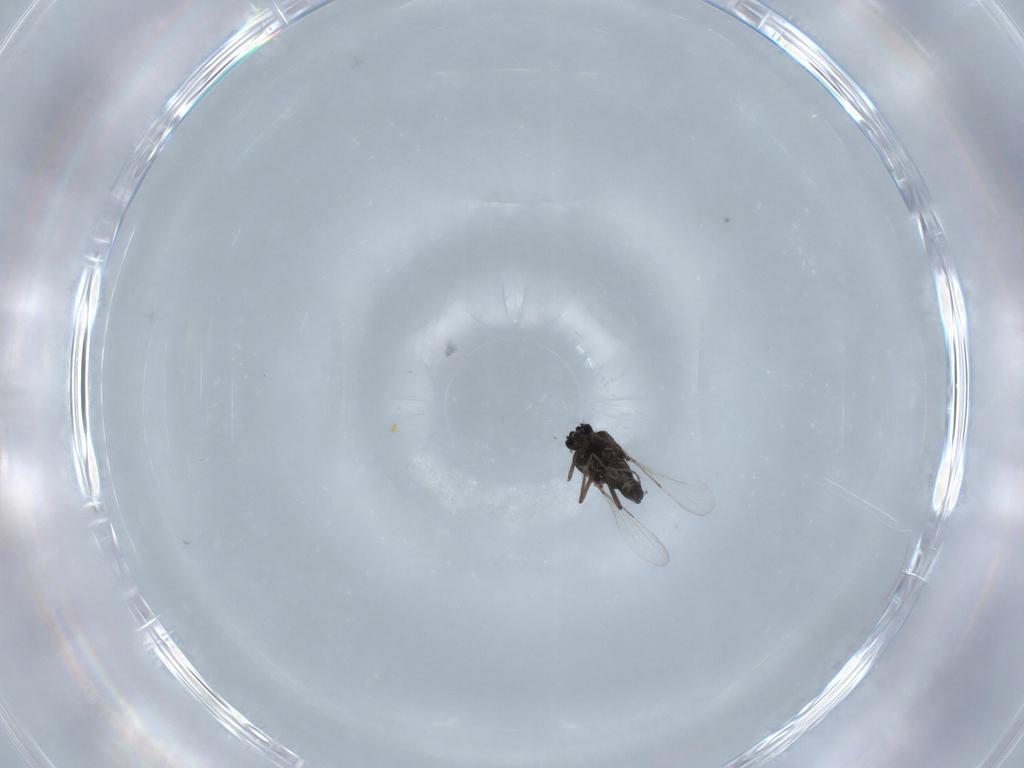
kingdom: Animalia
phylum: Arthropoda
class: Insecta
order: Diptera
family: Ceratopogonidae
